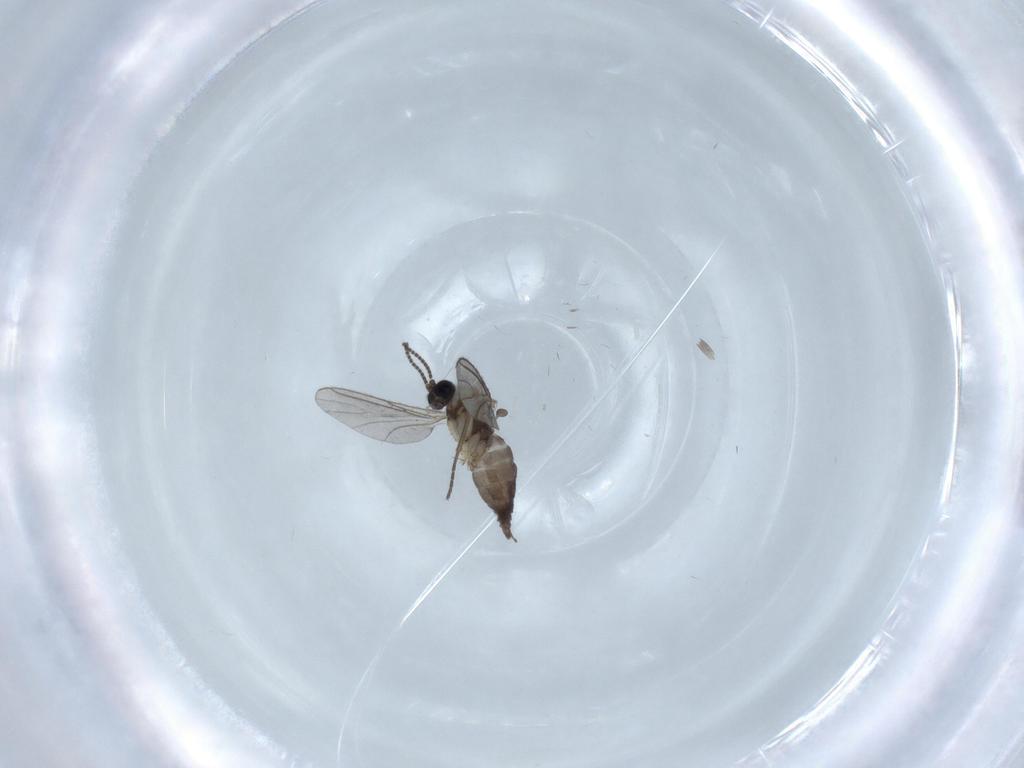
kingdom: Animalia
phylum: Arthropoda
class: Insecta
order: Diptera
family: Sciaridae
